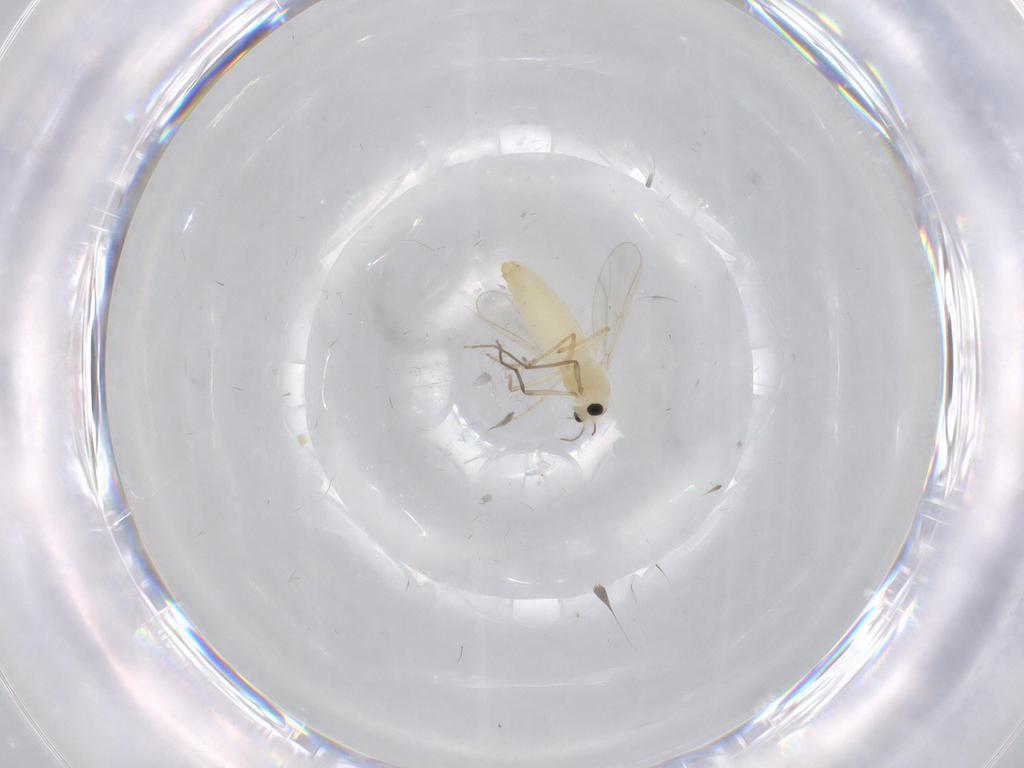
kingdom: Animalia
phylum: Arthropoda
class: Insecta
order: Diptera
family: Chironomidae
